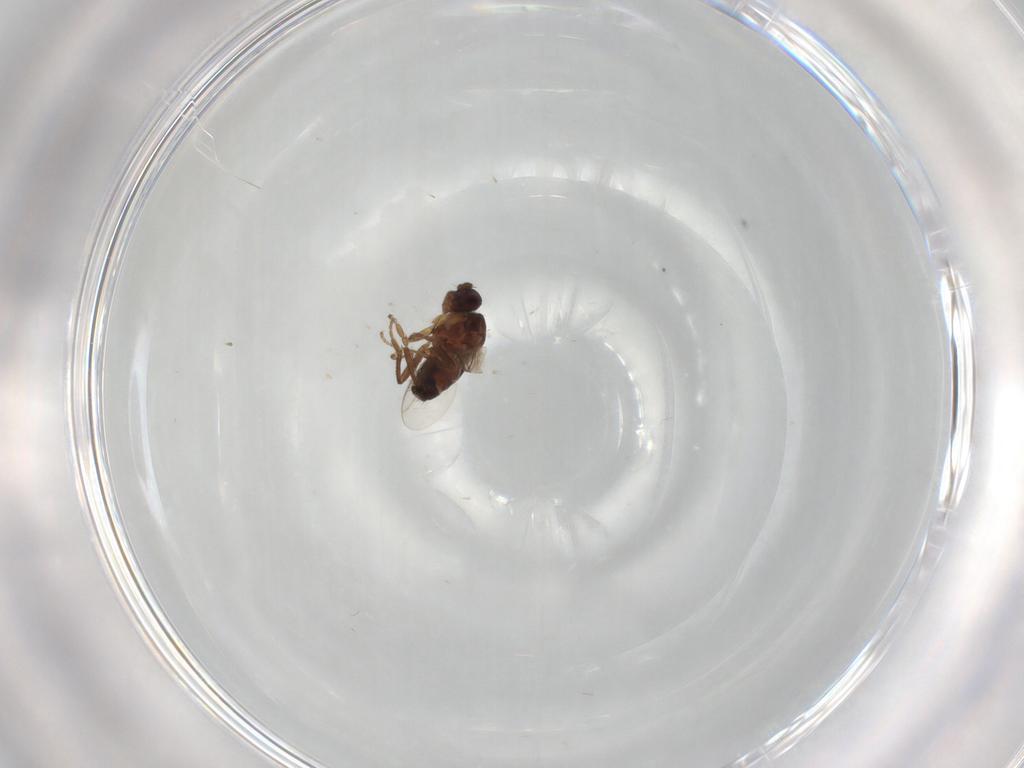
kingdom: Animalia
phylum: Arthropoda
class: Insecta
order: Diptera
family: Sphaeroceridae
